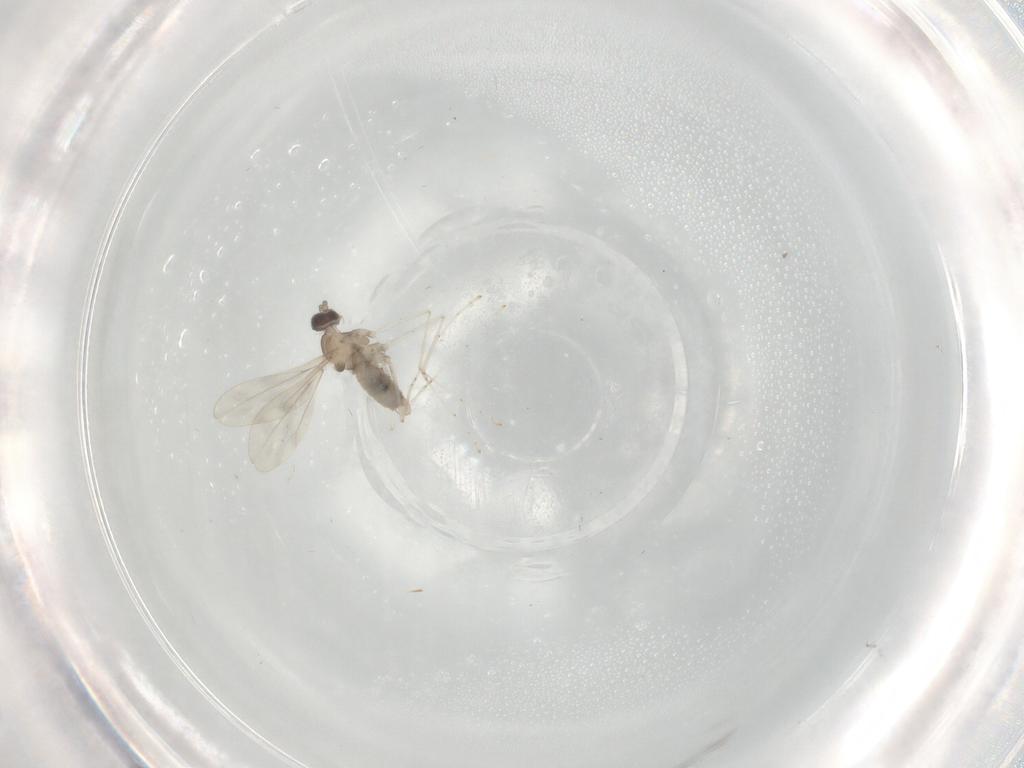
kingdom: Animalia
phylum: Arthropoda
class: Insecta
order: Diptera
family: Cecidomyiidae
